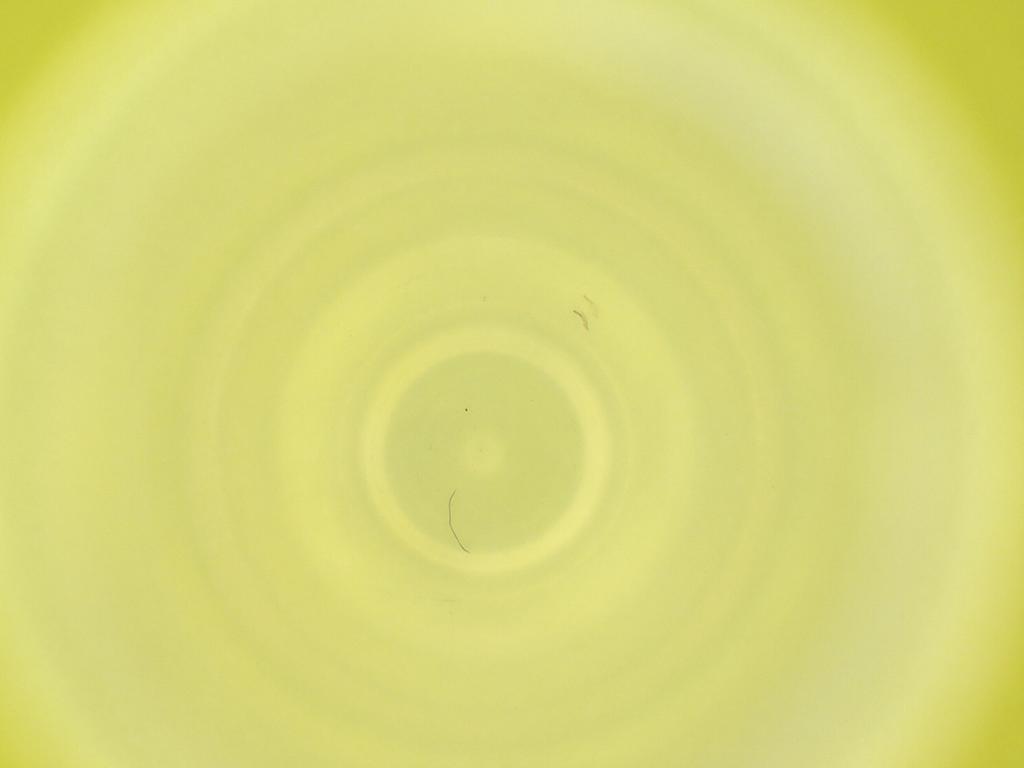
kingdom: Animalia
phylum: Arthropoda
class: Insecta
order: Diptera
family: Cecidomyiidae
